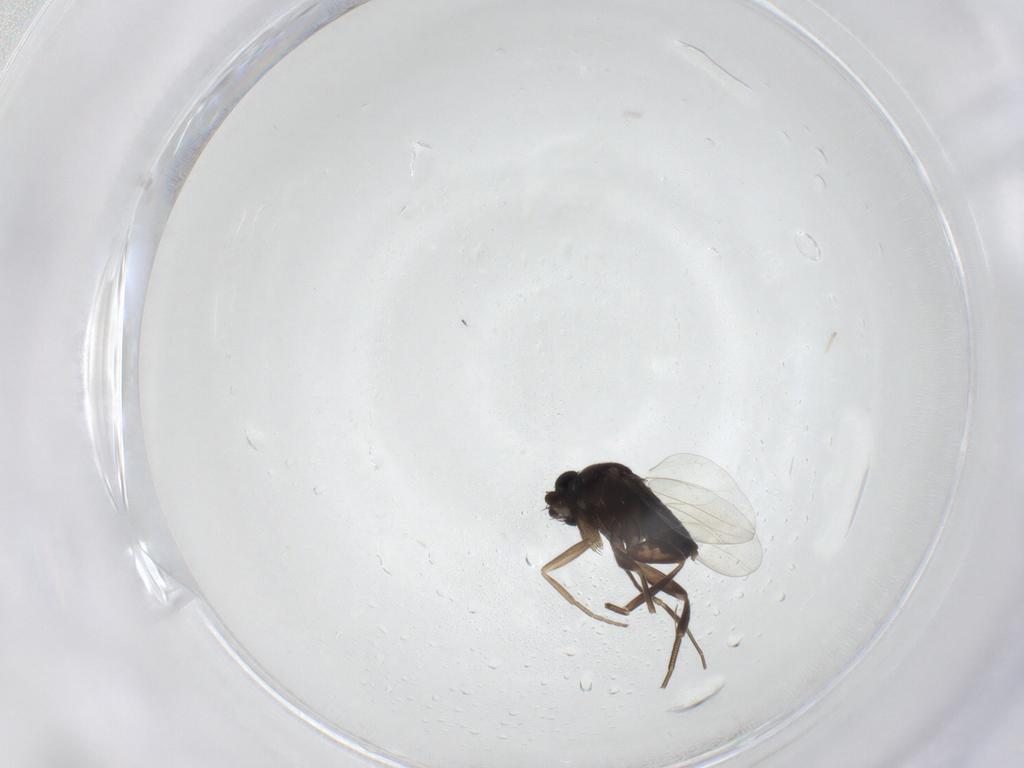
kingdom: Animalia
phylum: Arthropoda
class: Insecta
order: Diptera
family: Phoridae
